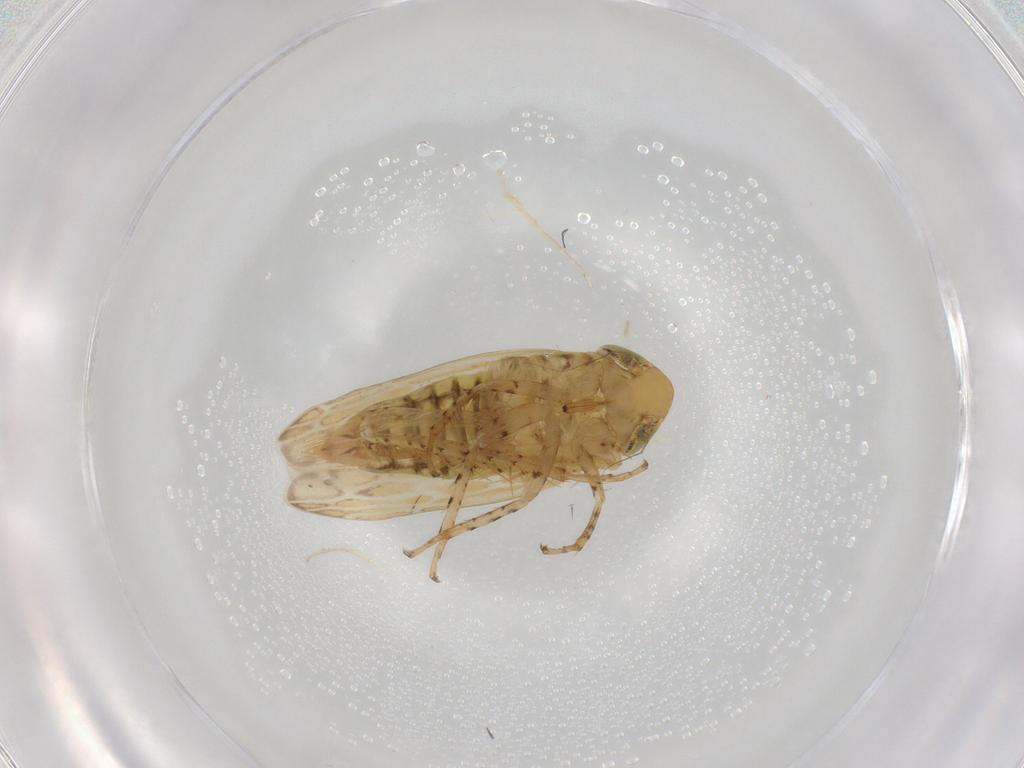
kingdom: Animalia
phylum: Arthropoda
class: Insecta
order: Hemiptera
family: Cicadellidae
